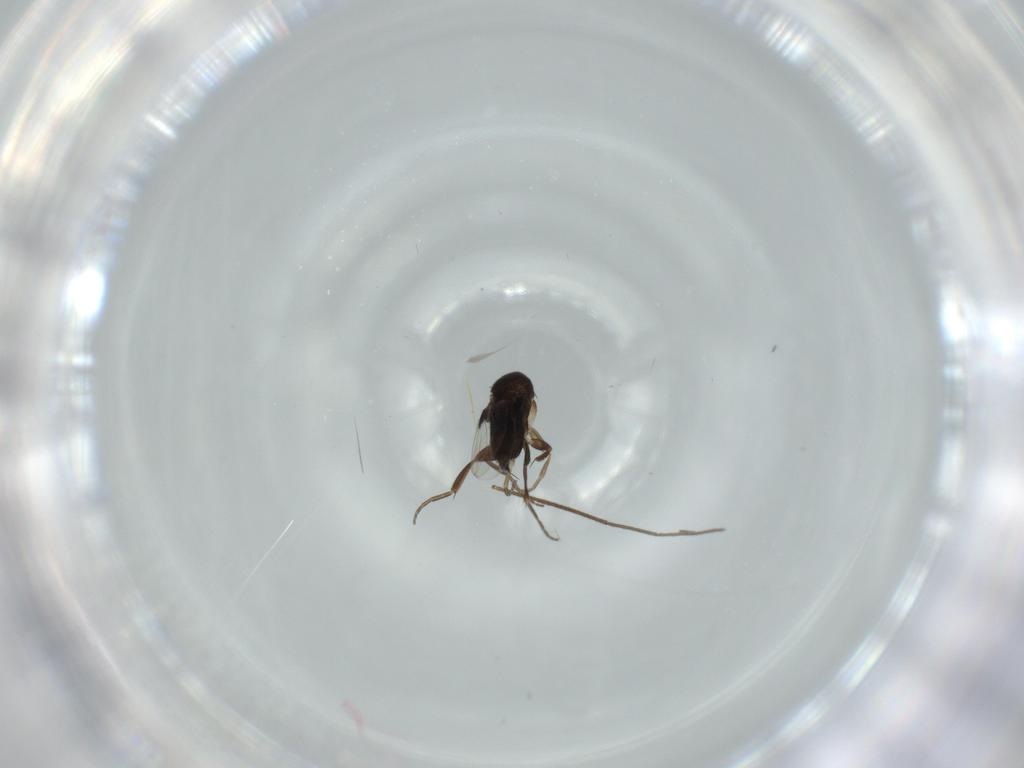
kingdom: Animalia
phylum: Arthropoda
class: Insecta
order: Diptera
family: Phoridae
